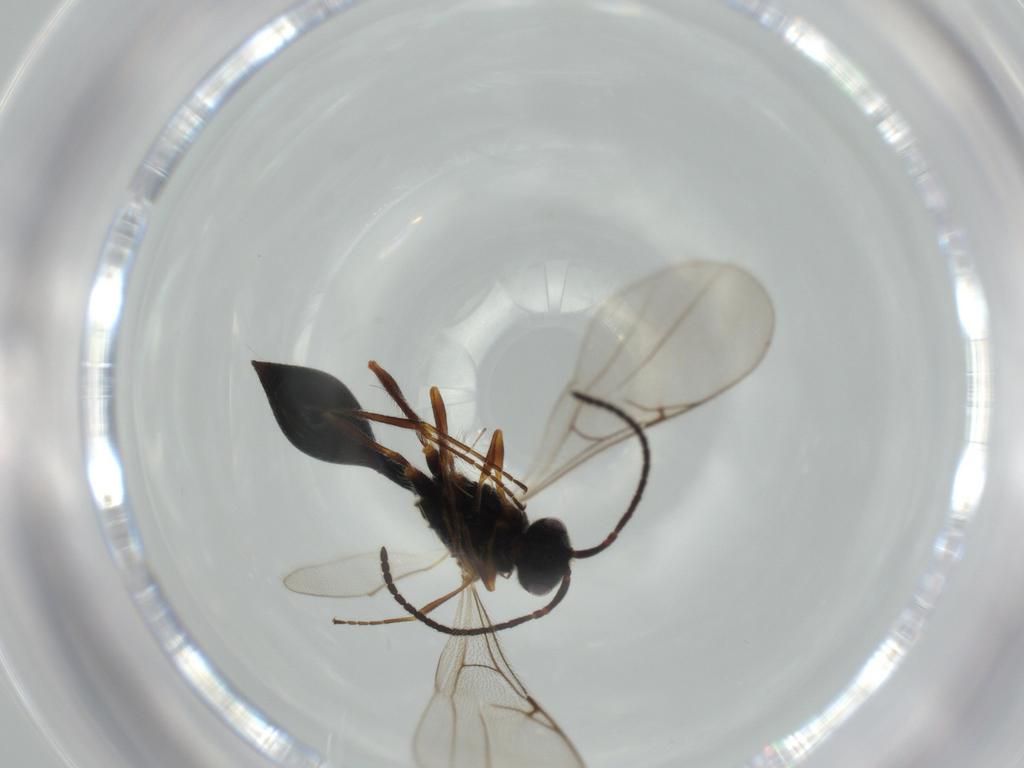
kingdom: Animalia
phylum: Arthropoda
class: Insecta
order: Hymenoptera
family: Diapriidae
